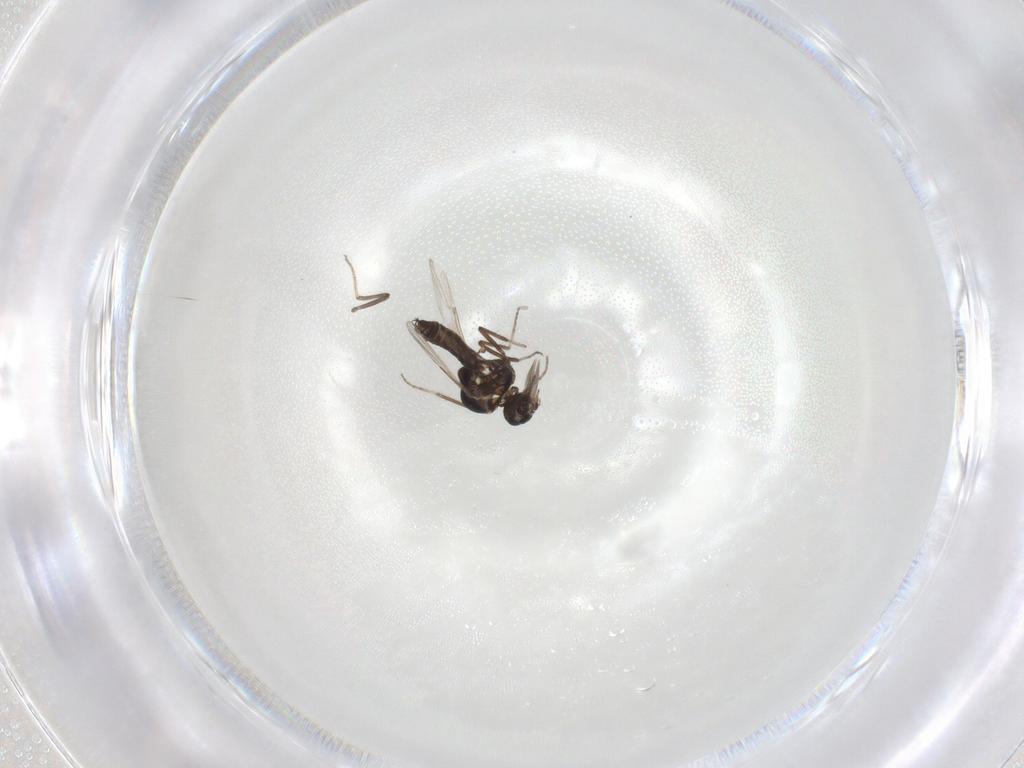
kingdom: Animalia
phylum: Arthropoda
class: Insecta
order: Diptera
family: Ceratopogonidae
